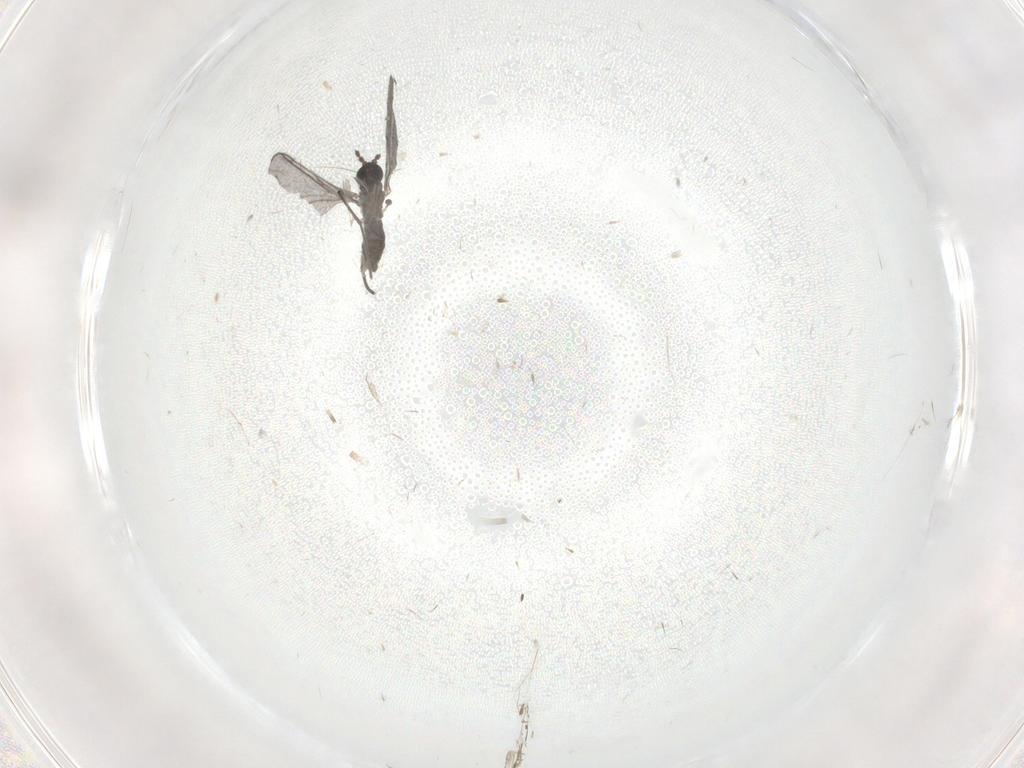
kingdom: Animalia
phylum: Arthropoda
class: Insecta
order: Diptera
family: Sciaridae
